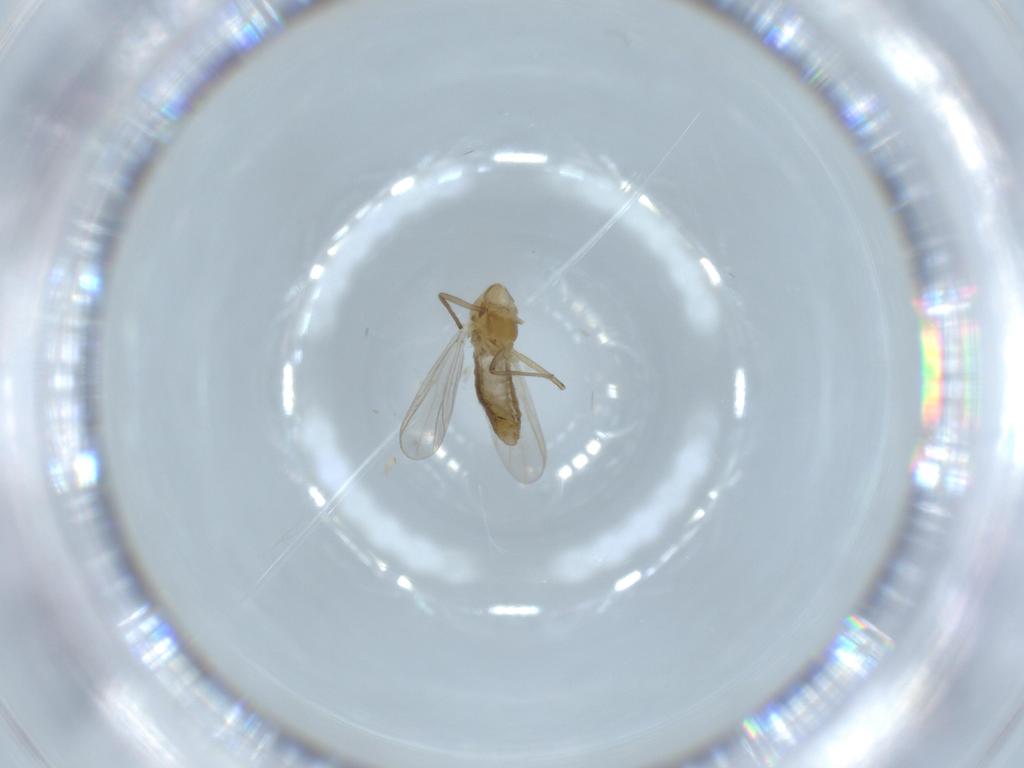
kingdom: Animalia
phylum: Arthropoda
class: Insecta
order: Diptera
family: Chironomidae
